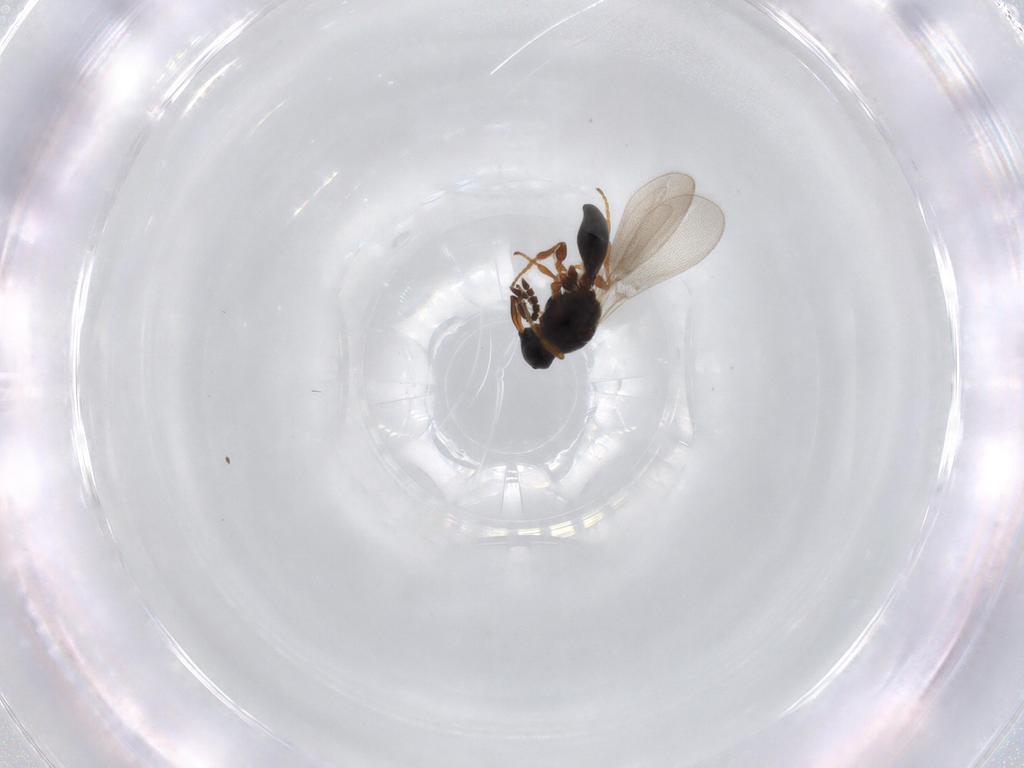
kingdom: Animalia
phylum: Arthropoda
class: Insecta
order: Hymenoptera
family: Platygastridae
